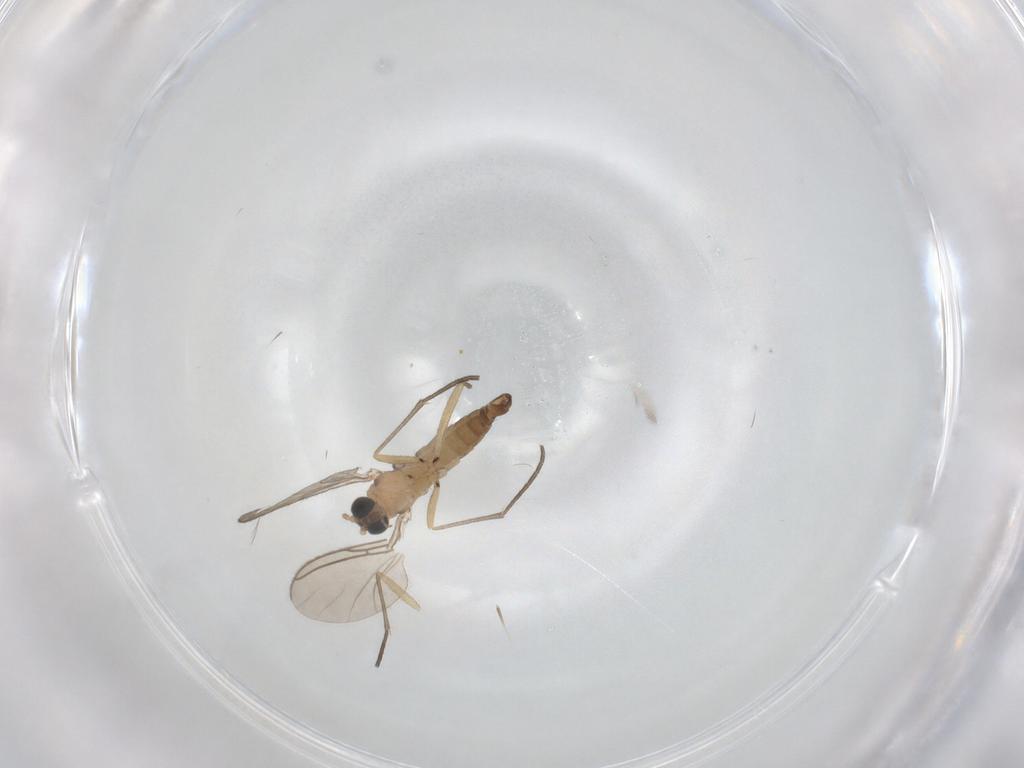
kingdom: Animalia
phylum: Arthropoda
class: Insecta
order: Diptera
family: Sciaridae
